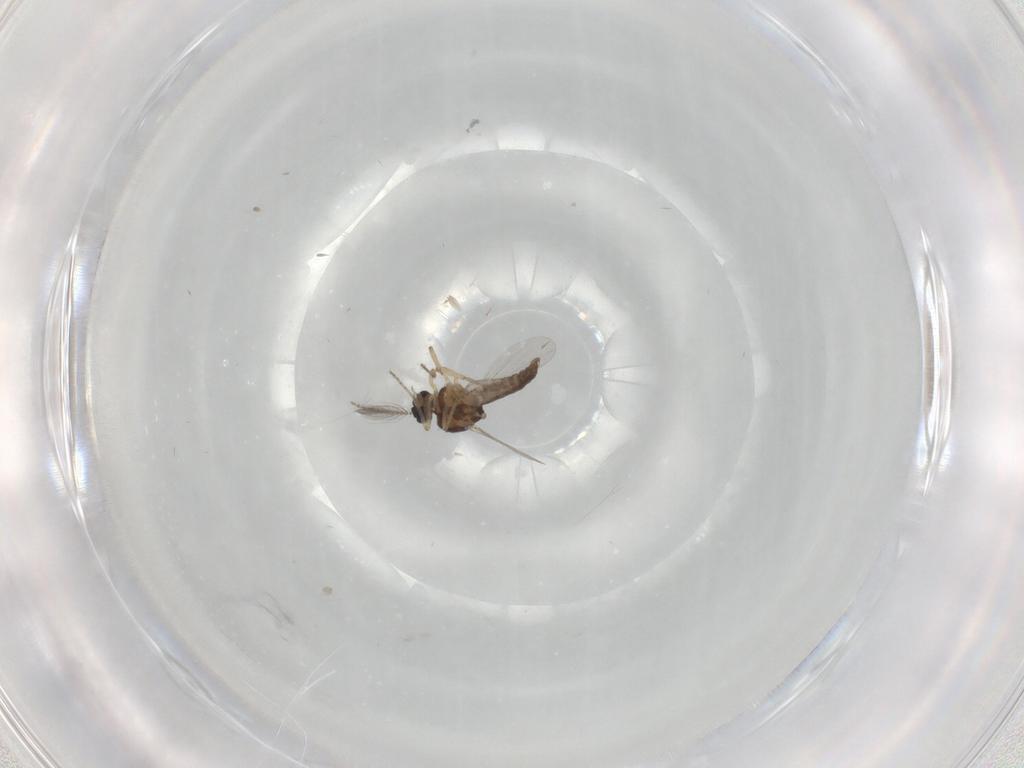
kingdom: Animalia
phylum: Arthropoda
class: Insecta
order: Diptera
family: Ceratopogonidae
